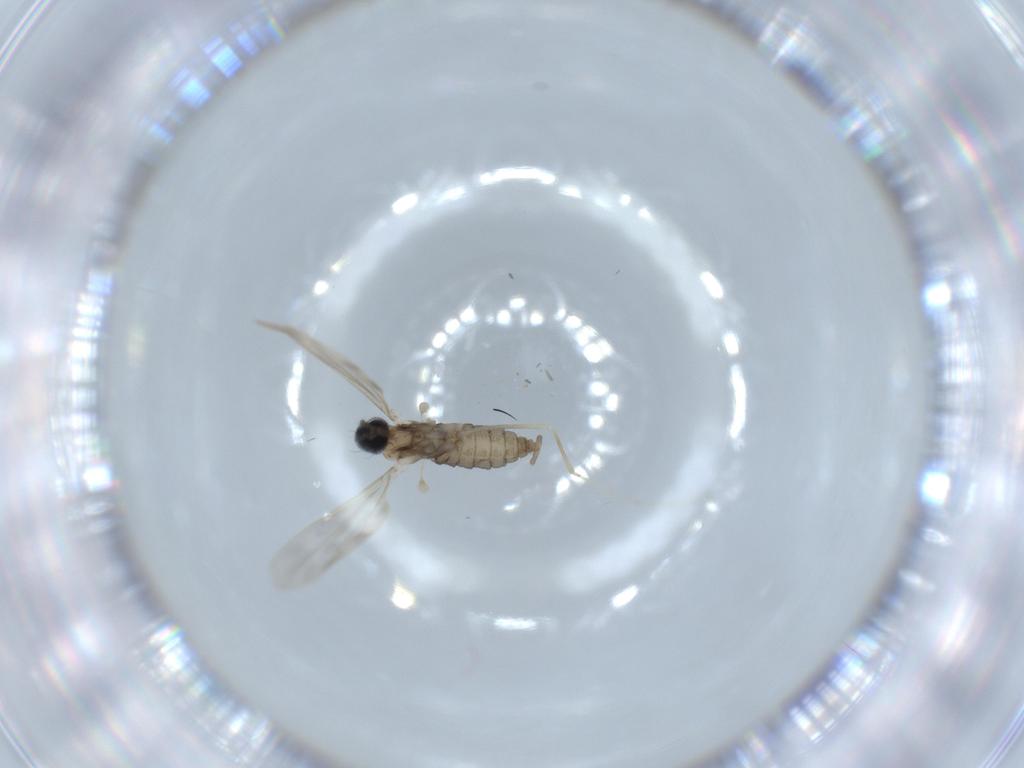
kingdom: Animalia
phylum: Arthropoda
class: Insecta
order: Diptera
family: Cecidomyiidae
